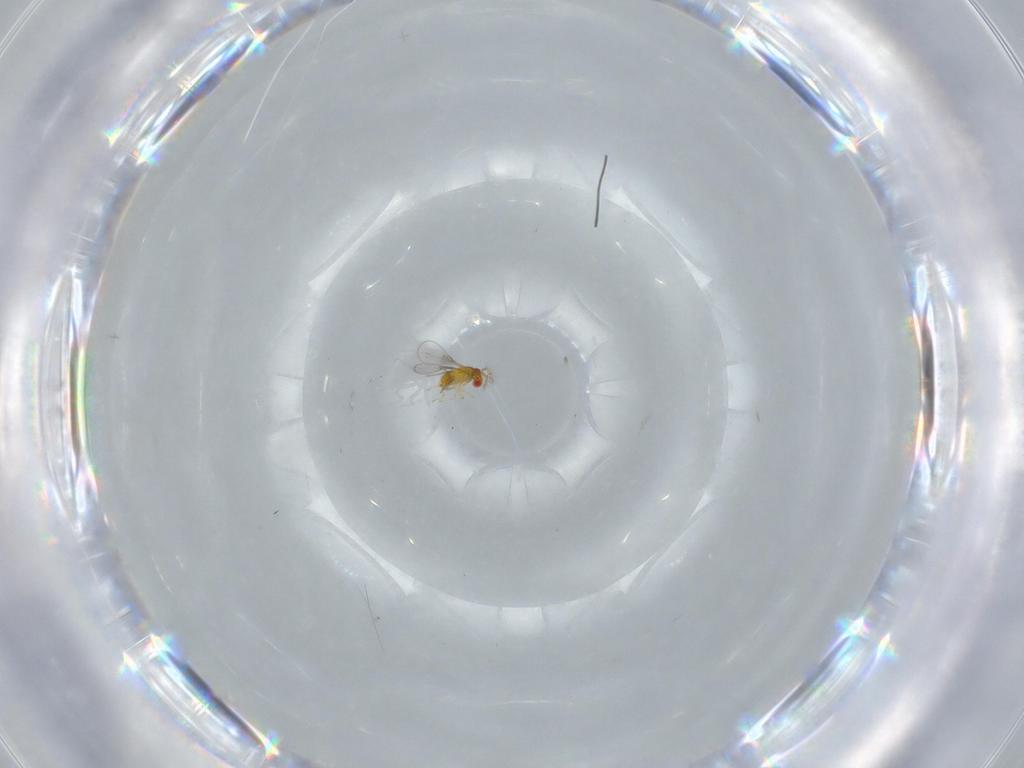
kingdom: Animalia
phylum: Arthropoda
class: Insecta
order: Hymenoptera
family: Trichogrammatidae
